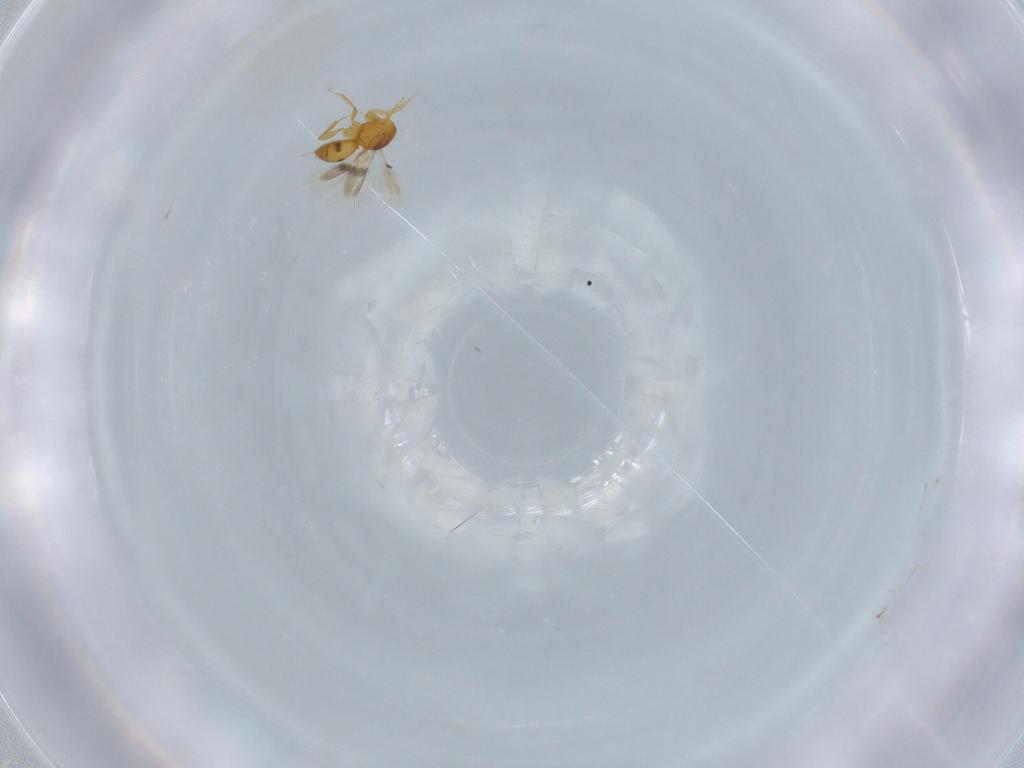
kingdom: Animalia
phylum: Arthropoda
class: Insecta
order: Hymenoptera
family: Scelionidae
